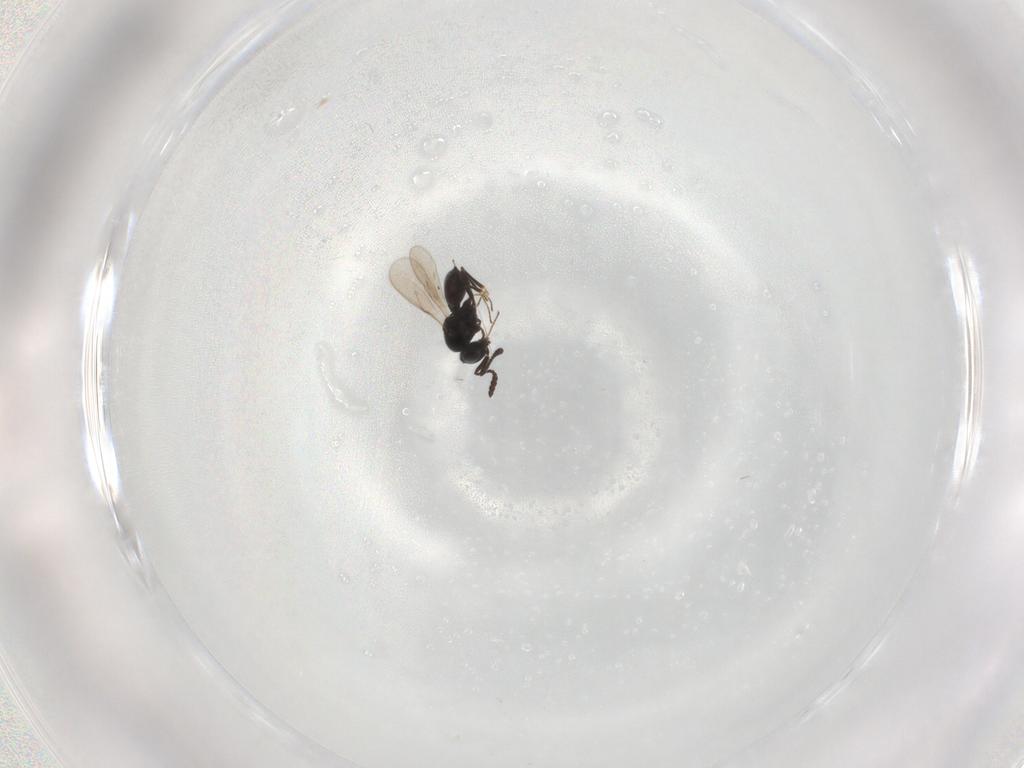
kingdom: Animalia
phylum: Arthropoda
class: Insecta
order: Hymenoptera
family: Scelionidae
